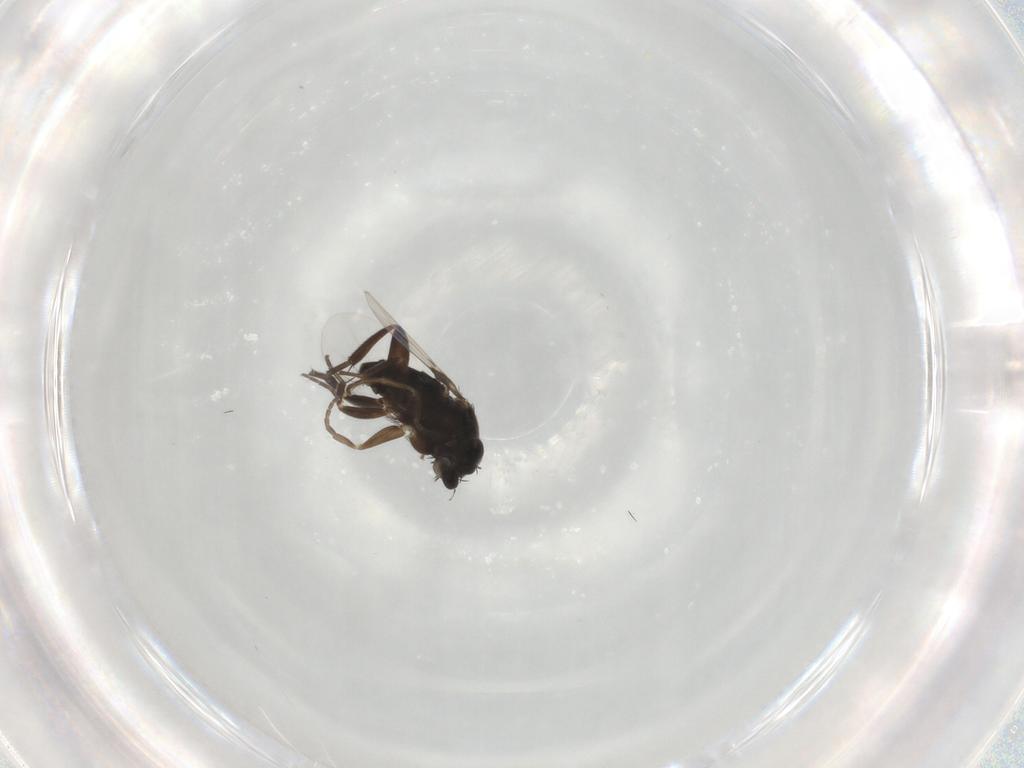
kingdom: Animalia
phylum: Arthropoda
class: Insecta
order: Diptera
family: Phoridae
